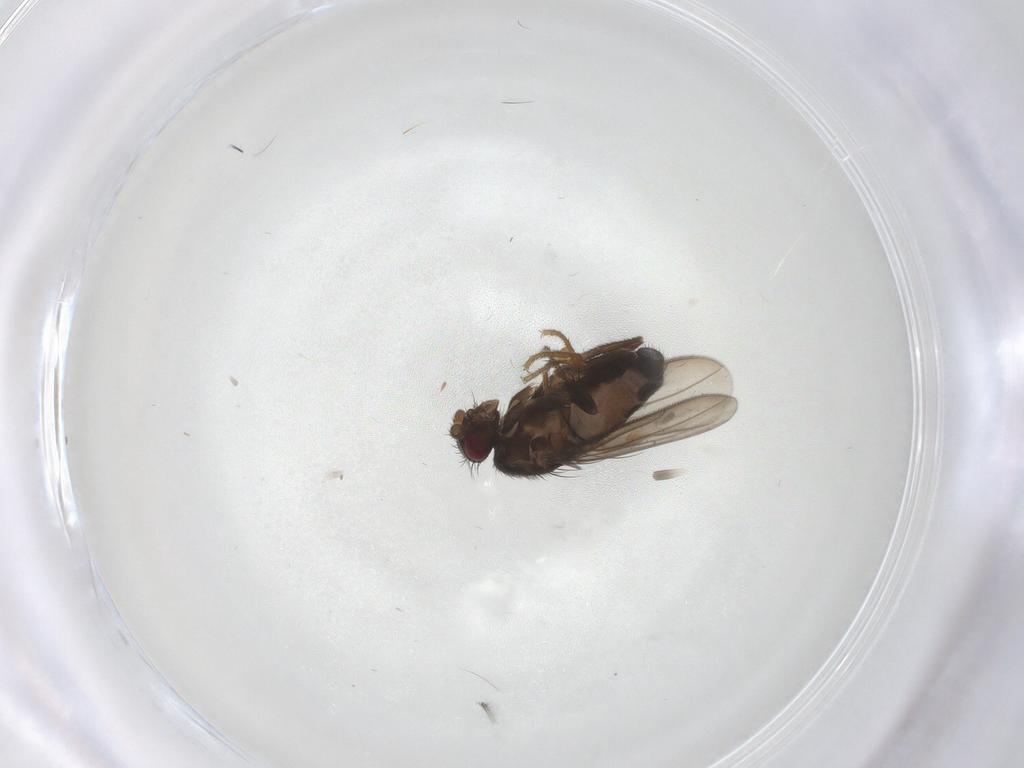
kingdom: Animalia
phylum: Arthropoda
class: Insecta
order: Diptera
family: Sphaeroceridae
